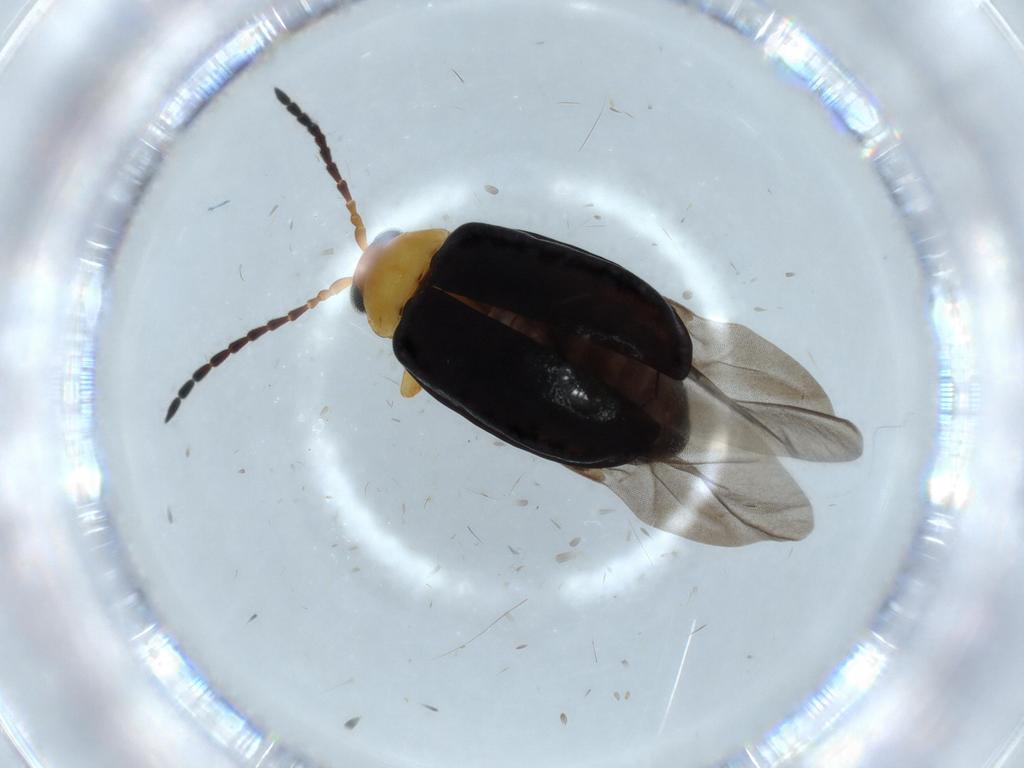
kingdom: Animalia
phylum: Arthropoda
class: Insecta
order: Coleoptera
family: Chrysomelidae
